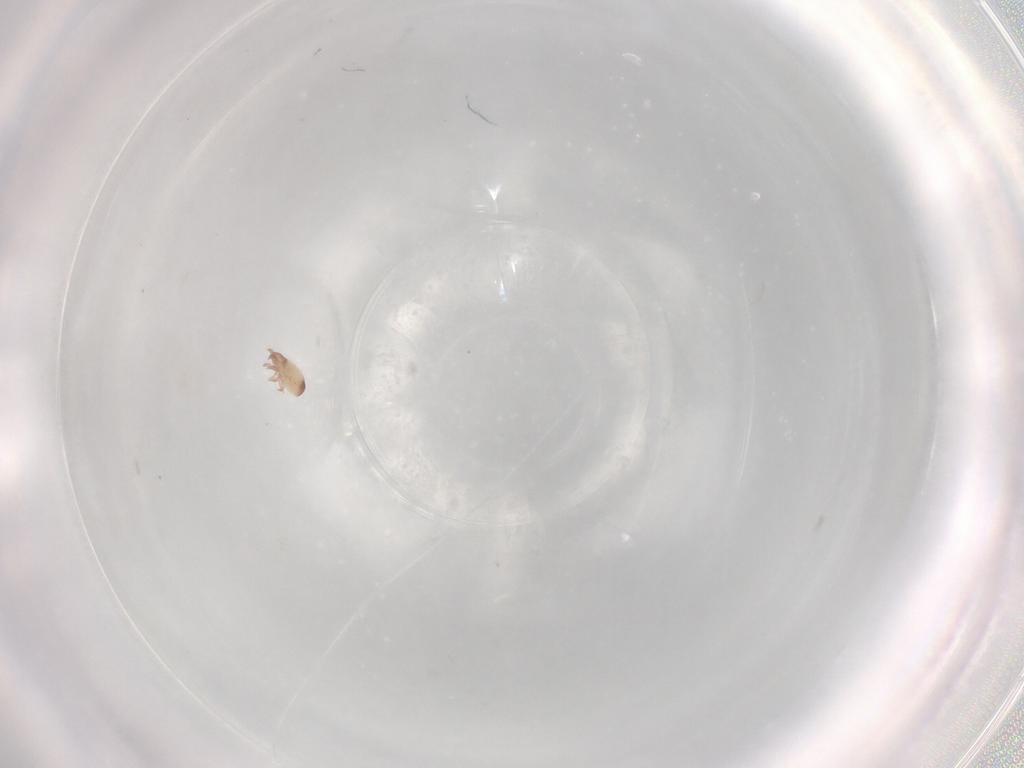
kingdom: Animalia
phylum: Arthropoda
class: Arachnida
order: Sarcoptiformes
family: Trhypochthoniidae
